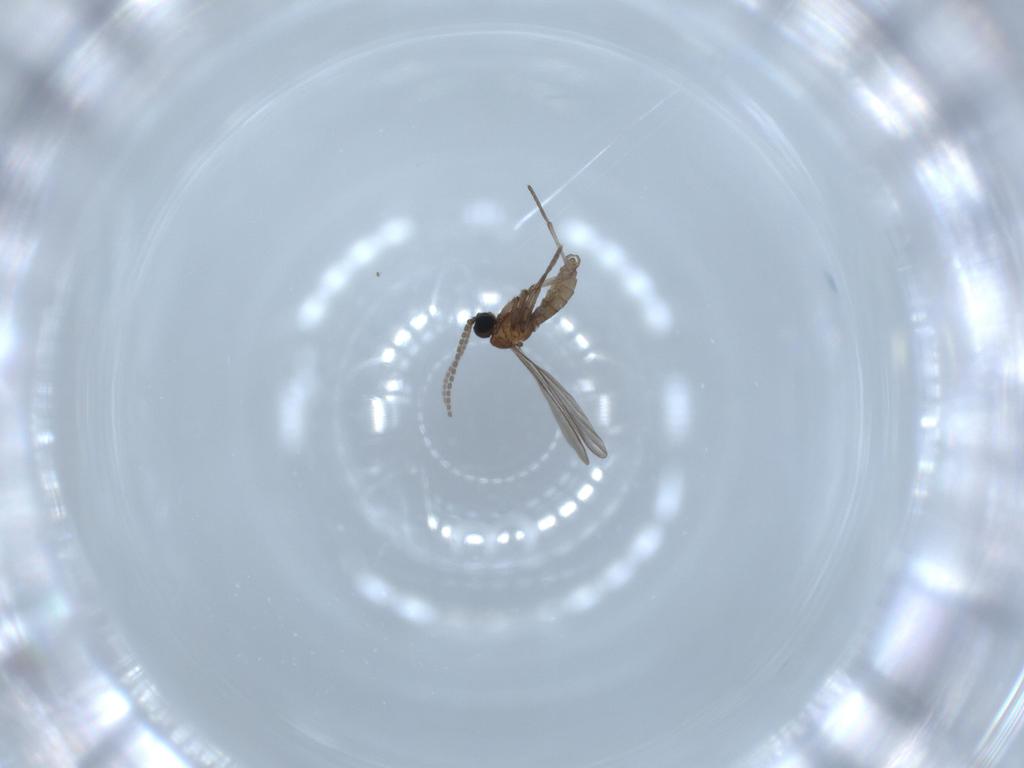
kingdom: Animalia
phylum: Arthropoda
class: Insecta
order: Diptera
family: Sciaridae
